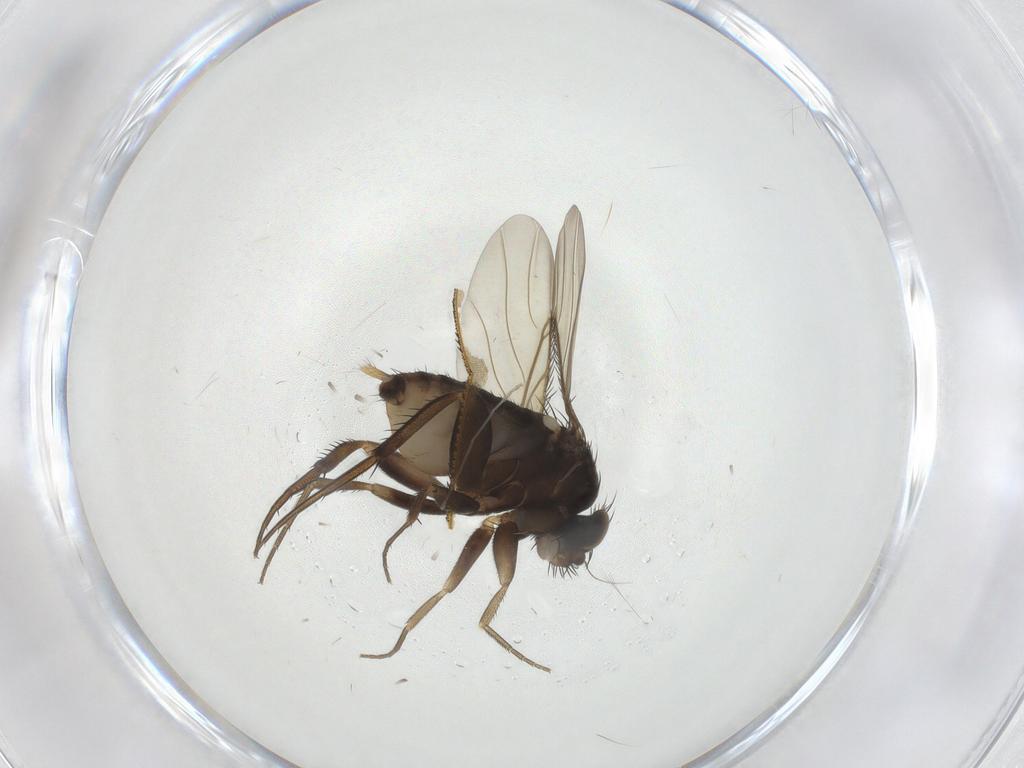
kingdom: Animalia
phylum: Arthropoda
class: Insecta
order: Diptera
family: Phoridae
